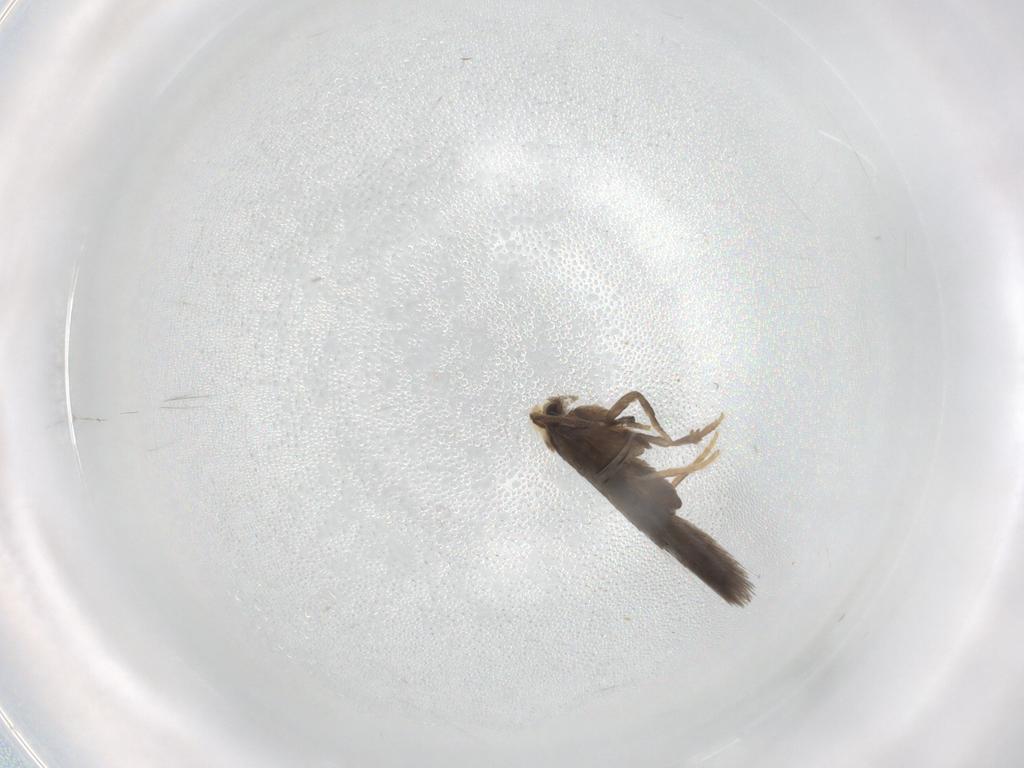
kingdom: Animalia
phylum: Arthropoda
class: Insecta
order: Lepidoptera
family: Nepticulidae
